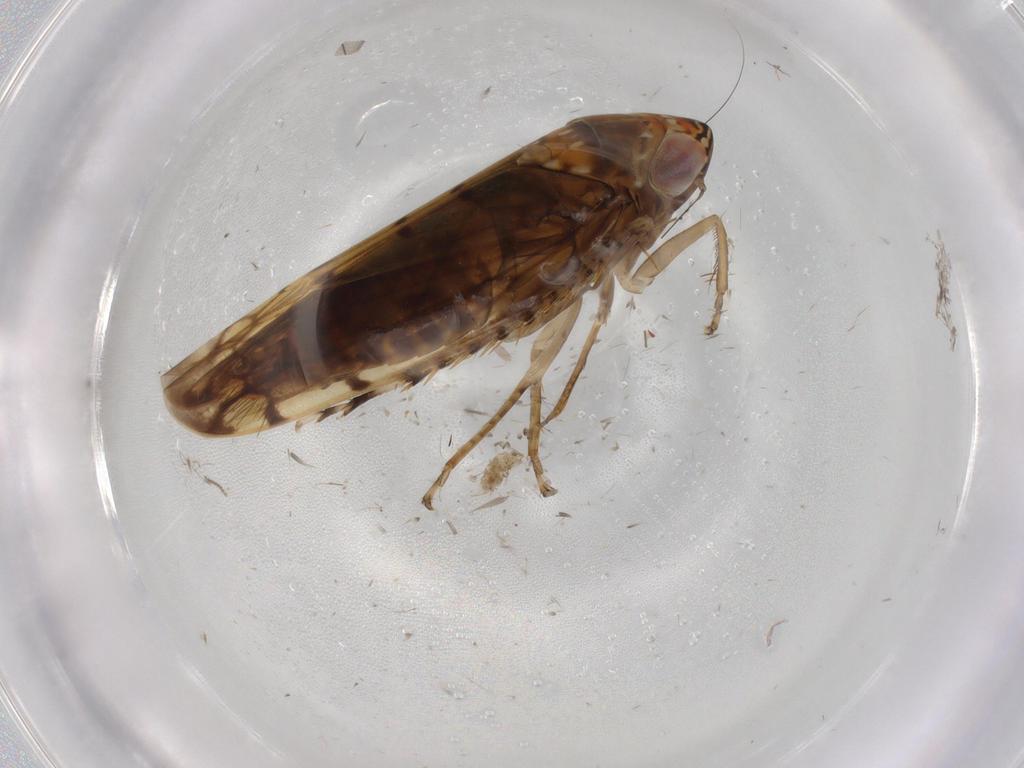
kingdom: Animalia
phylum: Arthropoda
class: Insecta
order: Hemiptera
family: Cicadellidae
